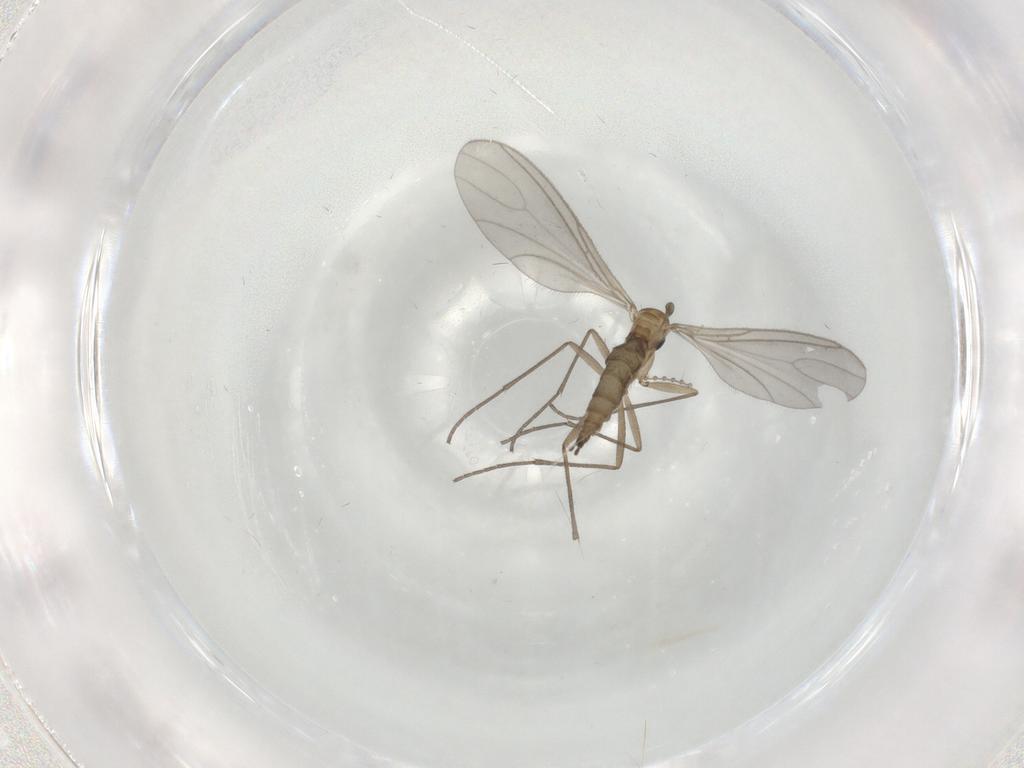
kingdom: Animalia
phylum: Arthropoda
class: Insecta
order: Diptera
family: Sciaridae
